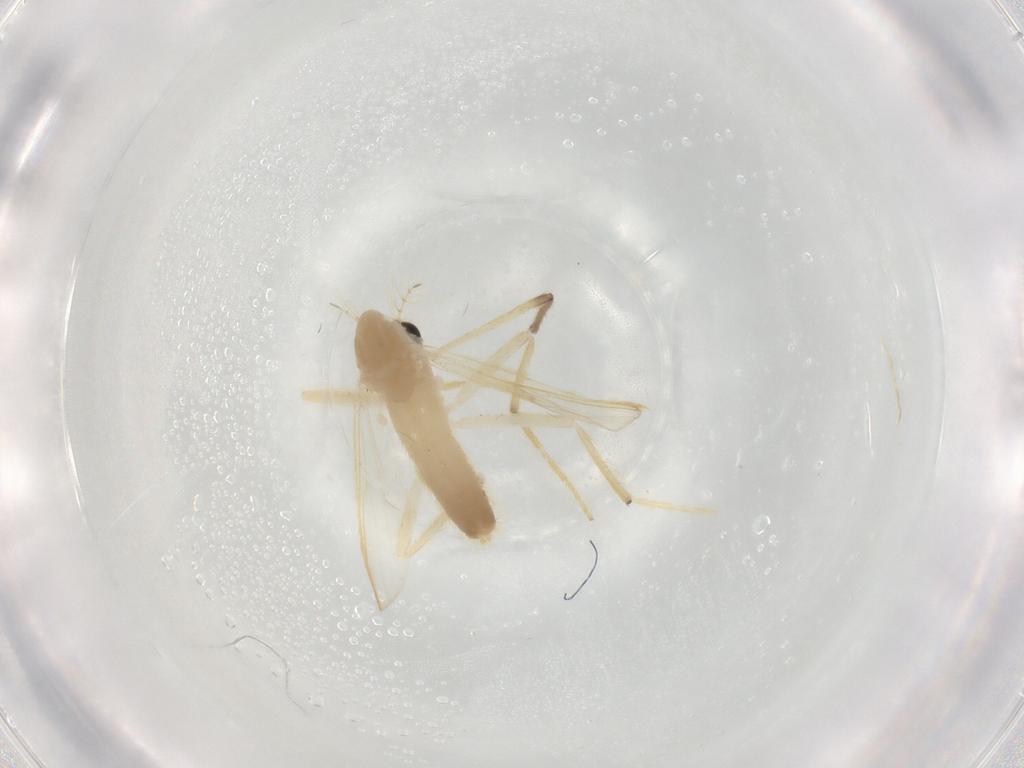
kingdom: Animalia
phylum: Arthropoda
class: Insecta
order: Diptera
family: Chironomidae
